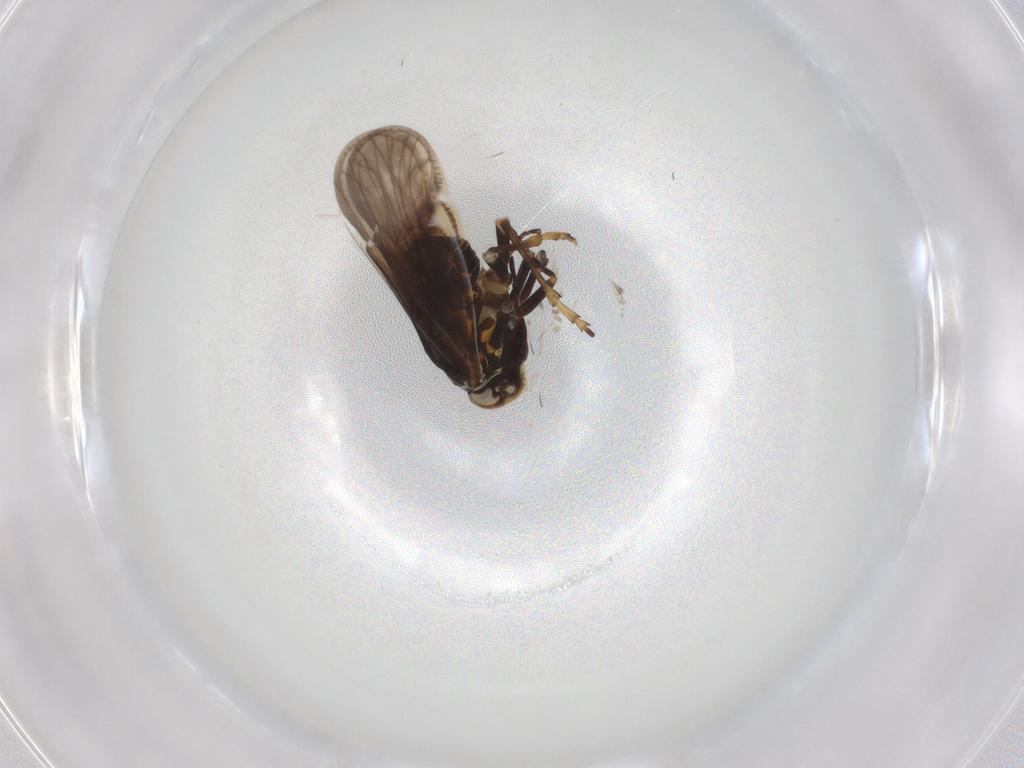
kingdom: Animalia
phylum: Arthropoda
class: Insecta
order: Hemiptera
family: Meenoplidae
